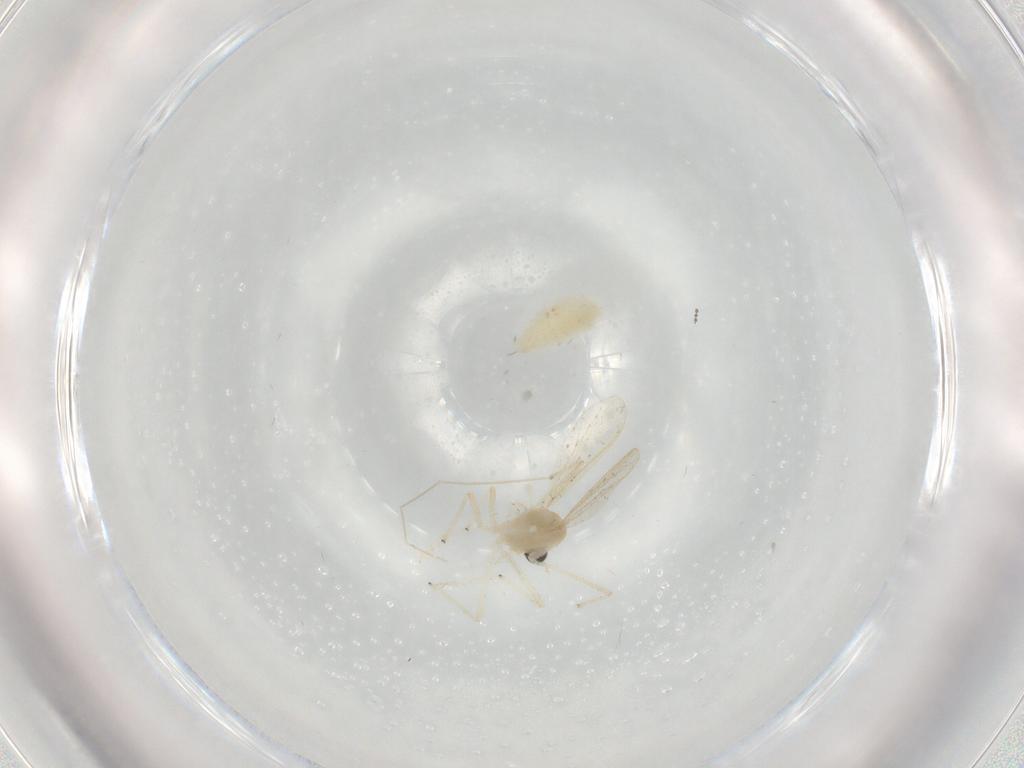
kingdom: Animalia
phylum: Arthropoda
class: Insecta
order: Diptera
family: Chironomidae
